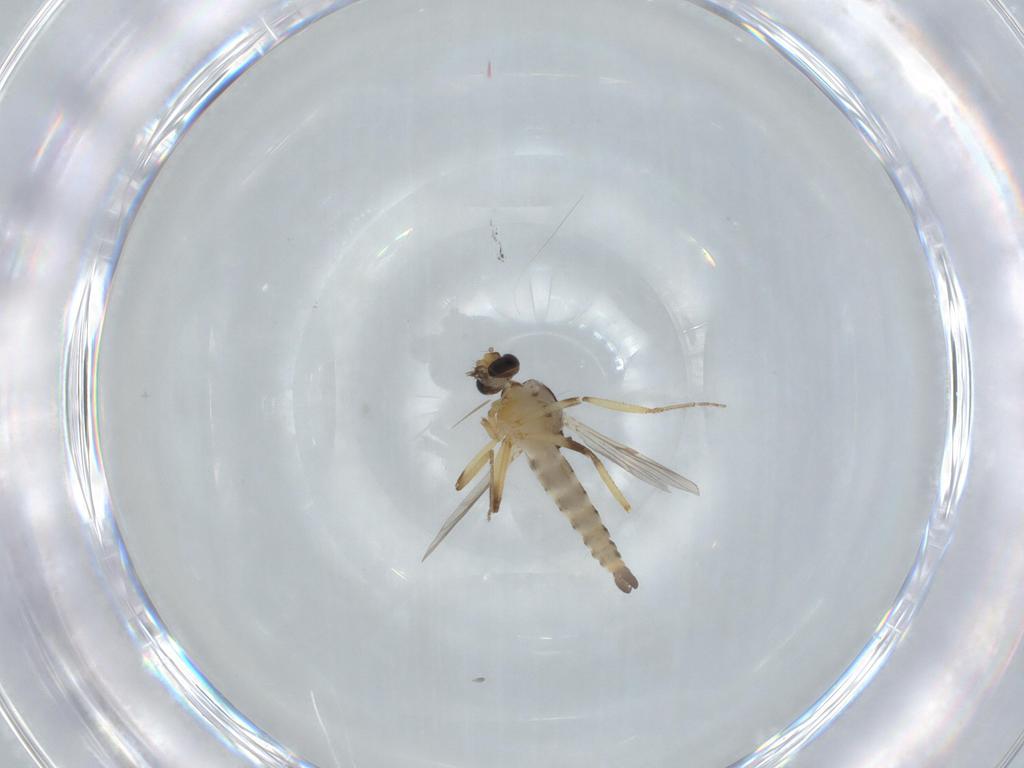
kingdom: Animalia
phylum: Arthropoda
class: Insecta
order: Diptera
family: Ceratopogonidae
